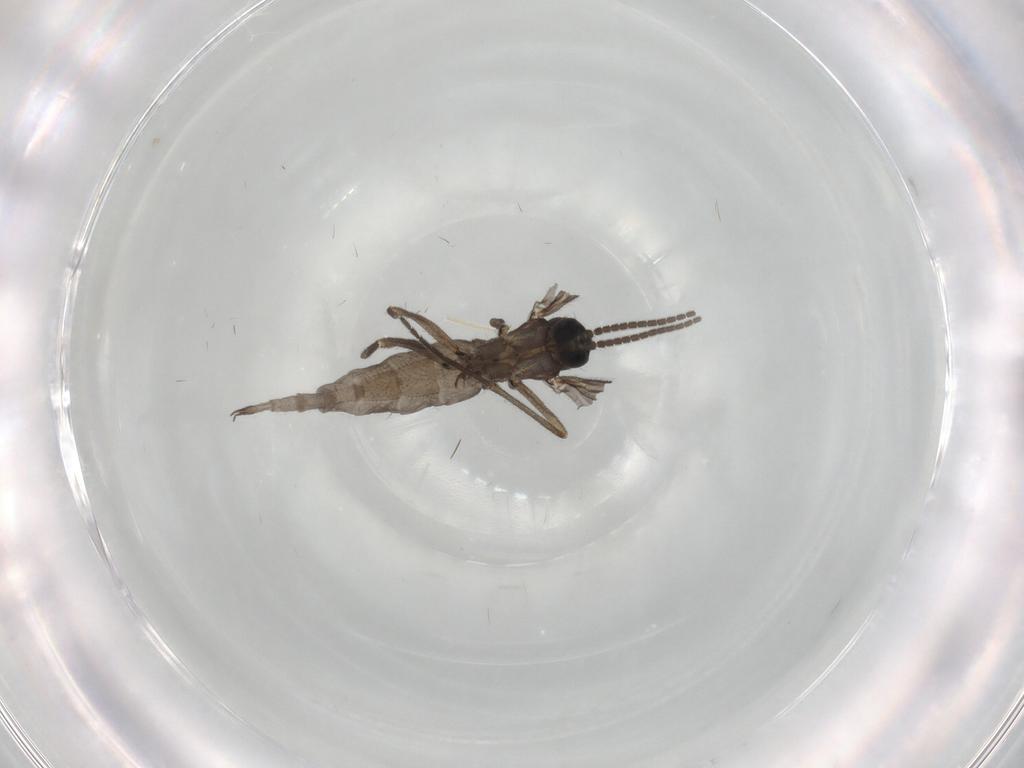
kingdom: Animalia
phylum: Arthropoda
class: Insecta
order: Diptera
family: Sciaridae
